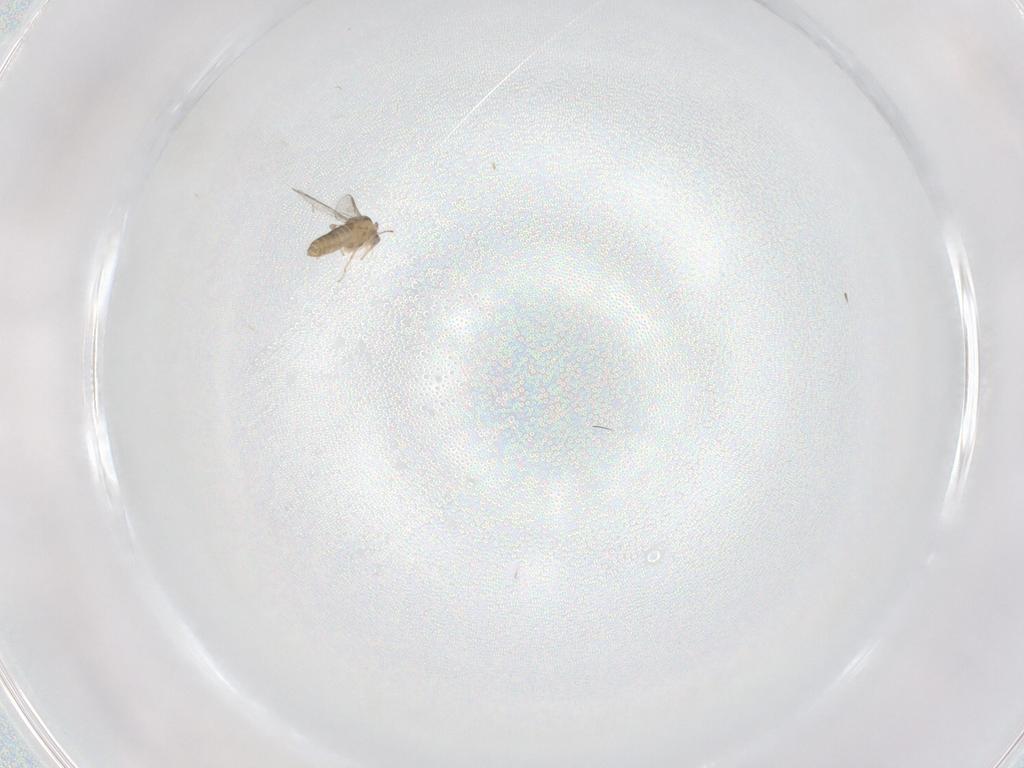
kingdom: Animalia
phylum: Arthropoda
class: Insecta
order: Diptera
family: Chironomidae
